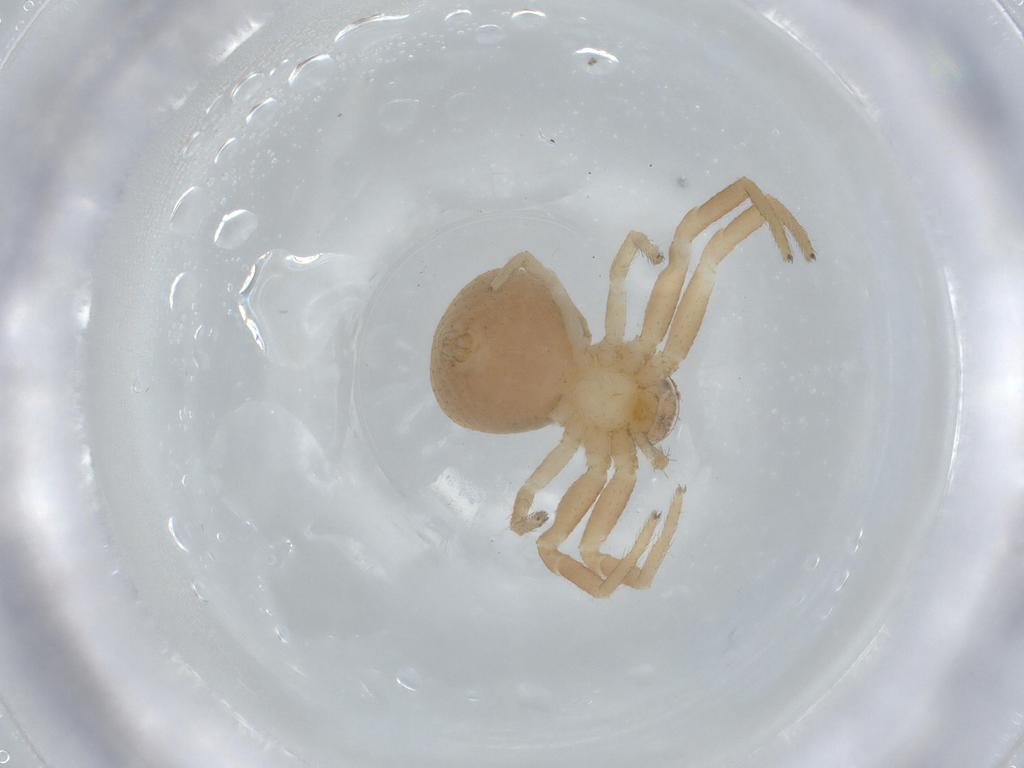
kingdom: Animalia
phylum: Arthropoda
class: Arachnida
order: Araneae
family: Thomisidae
